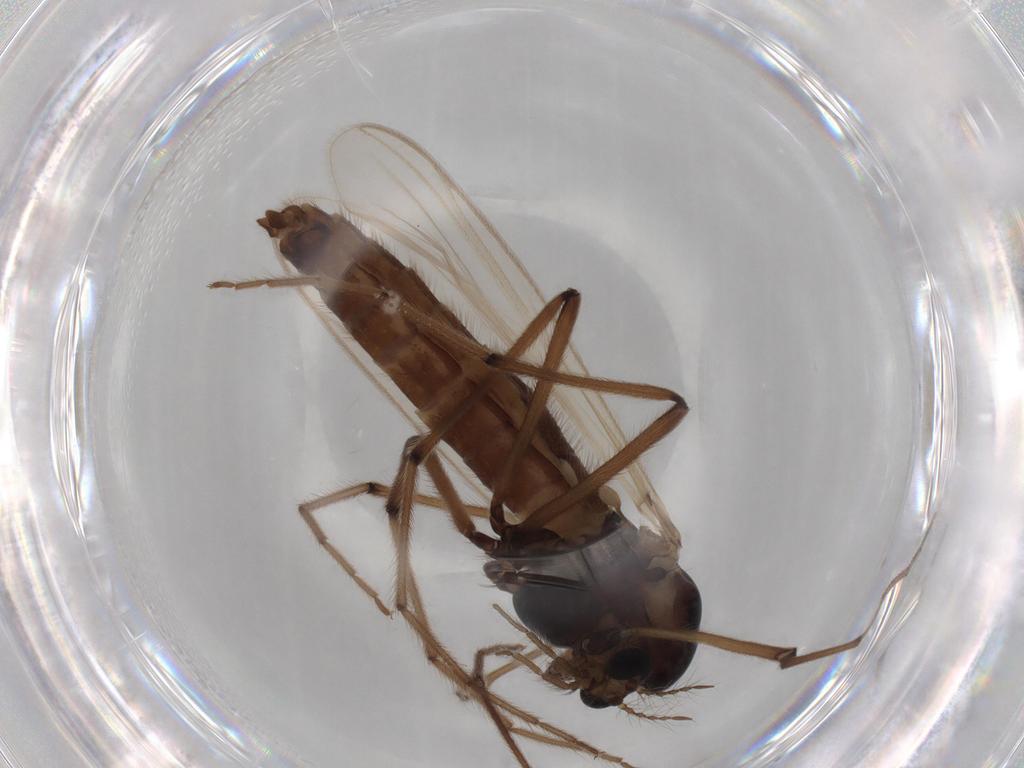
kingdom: Animalia
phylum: Arthropoda
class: Insecta
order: Diptera
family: Chironomidae
